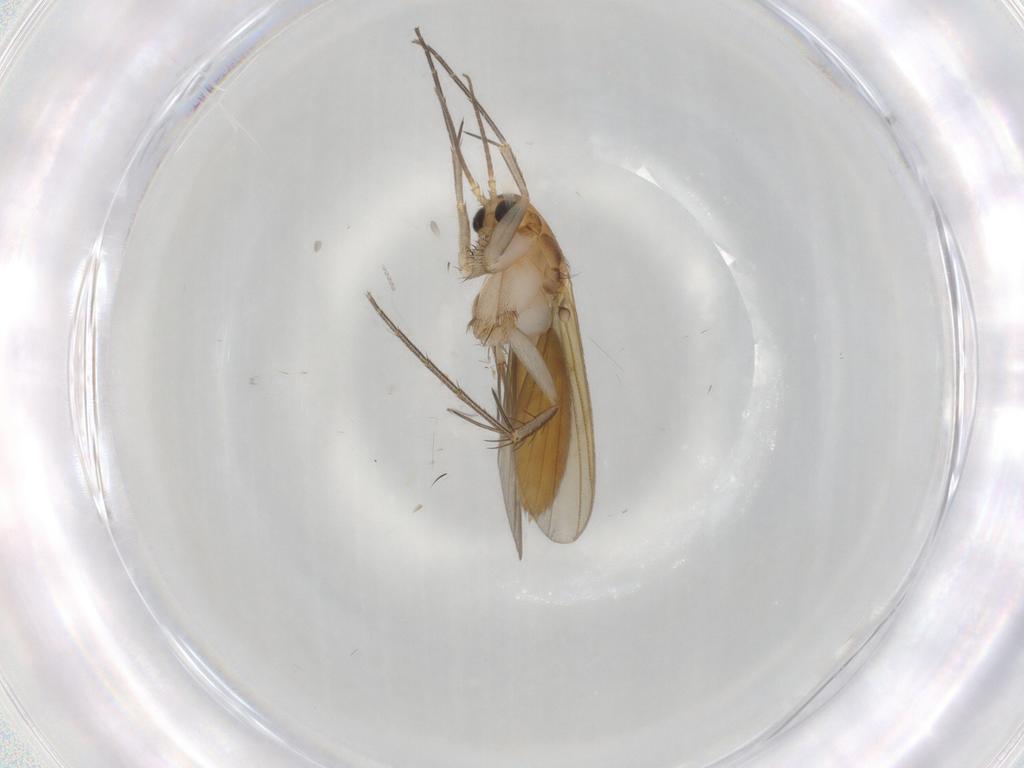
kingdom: Animalia
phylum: Arthropoda
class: Insecta
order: Diptera
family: Mycetophilidae
